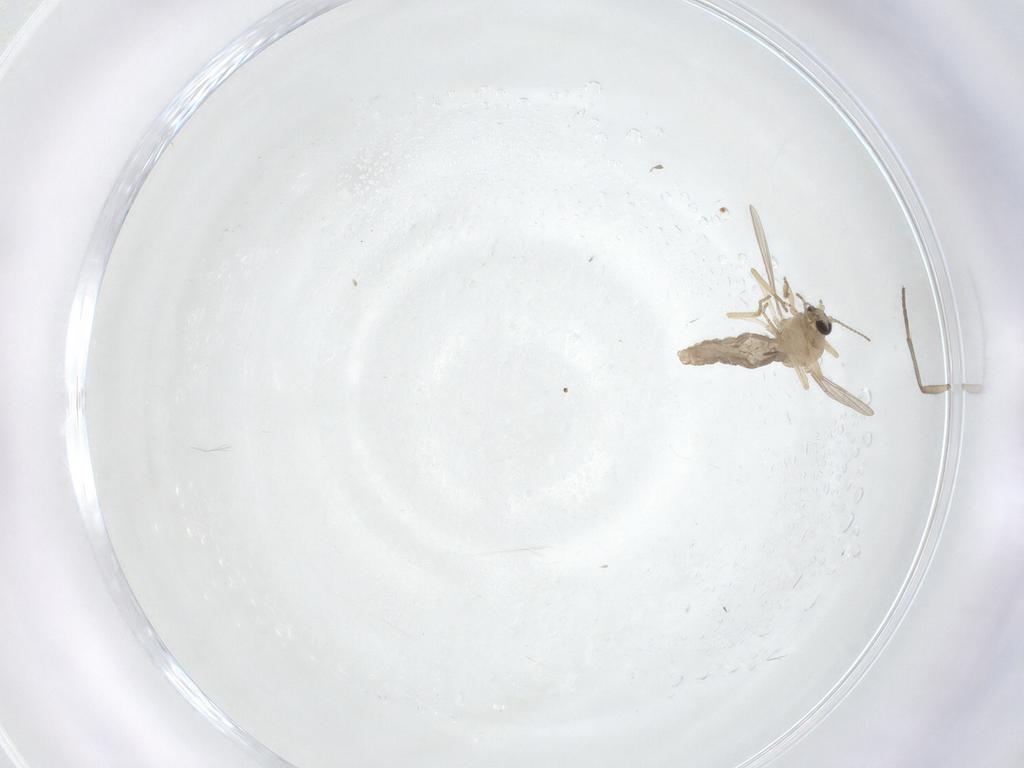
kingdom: Animalia
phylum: Arthropoda
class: Insecta
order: Diptera
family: Ceratopogonidae
